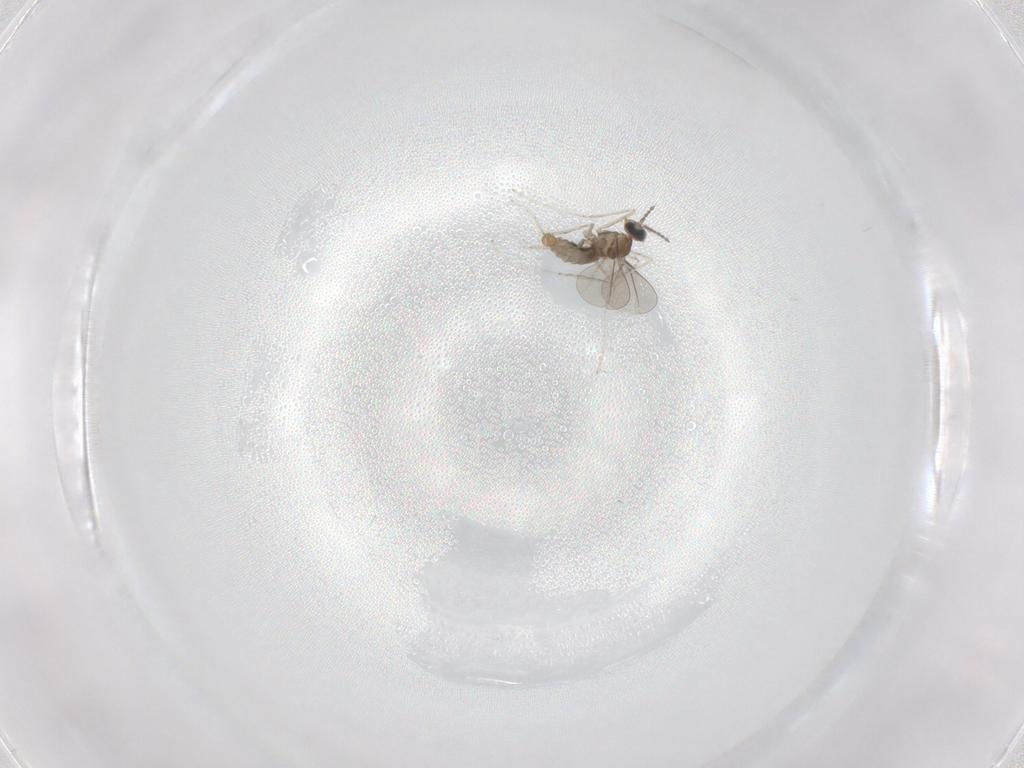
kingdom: Animalia
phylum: Arthropoda
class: Insecta
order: Diptera
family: Cecidomyiidae
